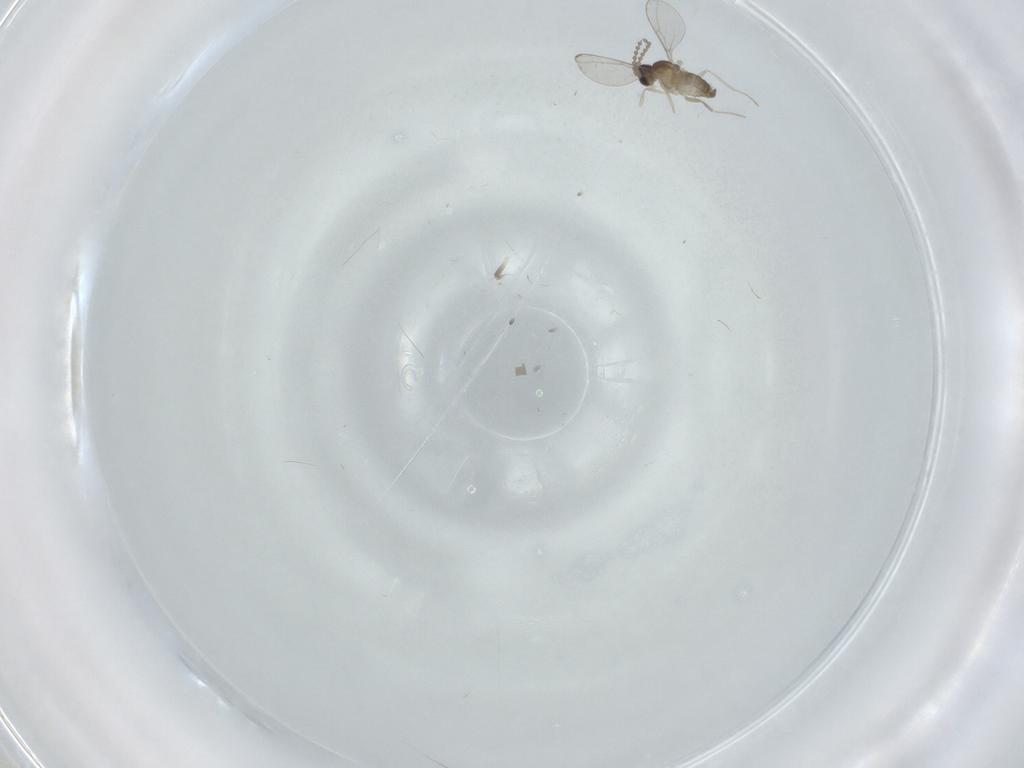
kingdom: Animalia
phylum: Arthropoda
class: Insecta
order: Diptera
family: Cecidomyiidae
